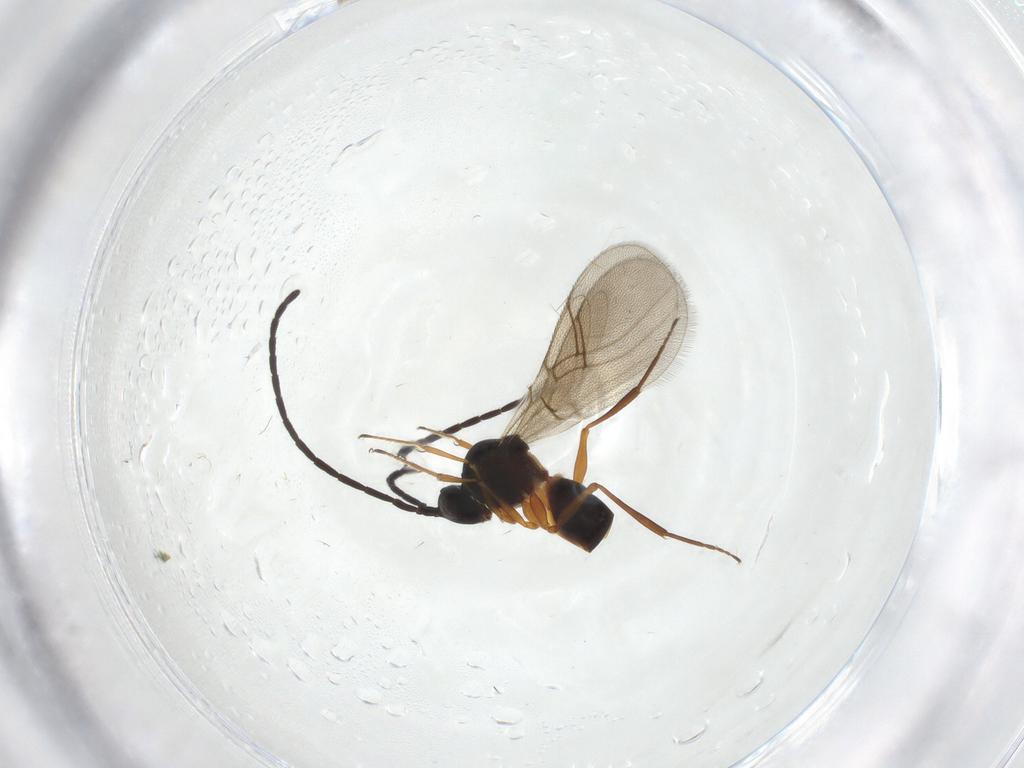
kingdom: Animalia
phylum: Arthropoda
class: Insecta
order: Hymenoptera
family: Figitidae
